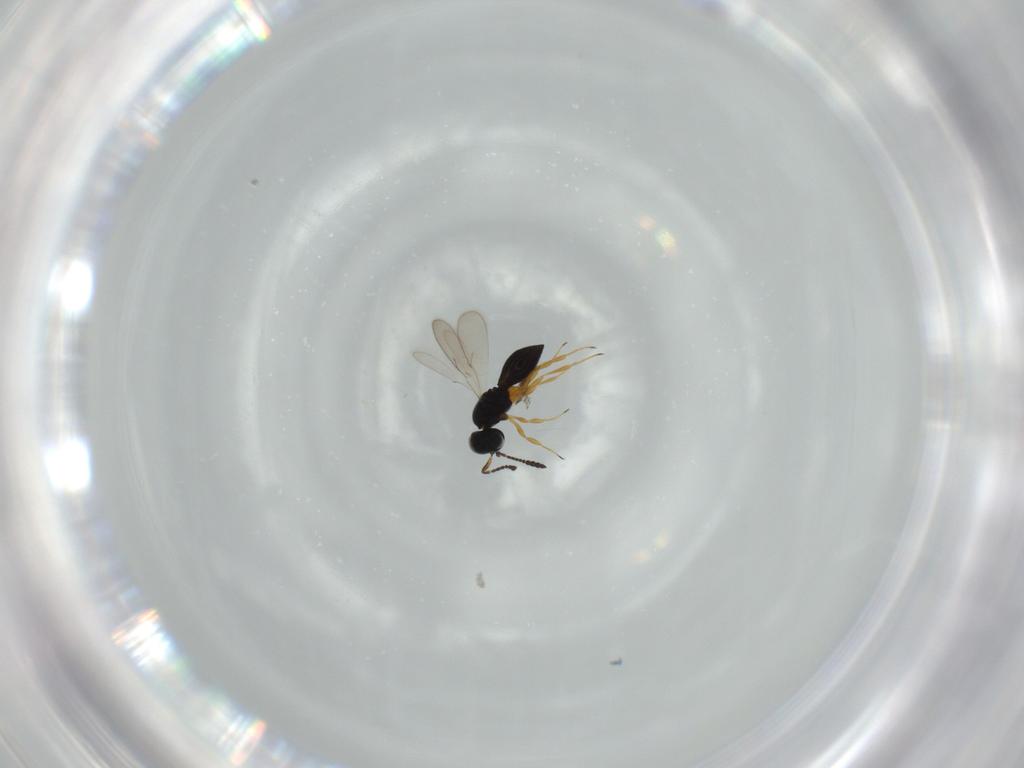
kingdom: Animalia
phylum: Arthropoda
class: Insecta
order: Hymenoptera
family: Scelionidae
